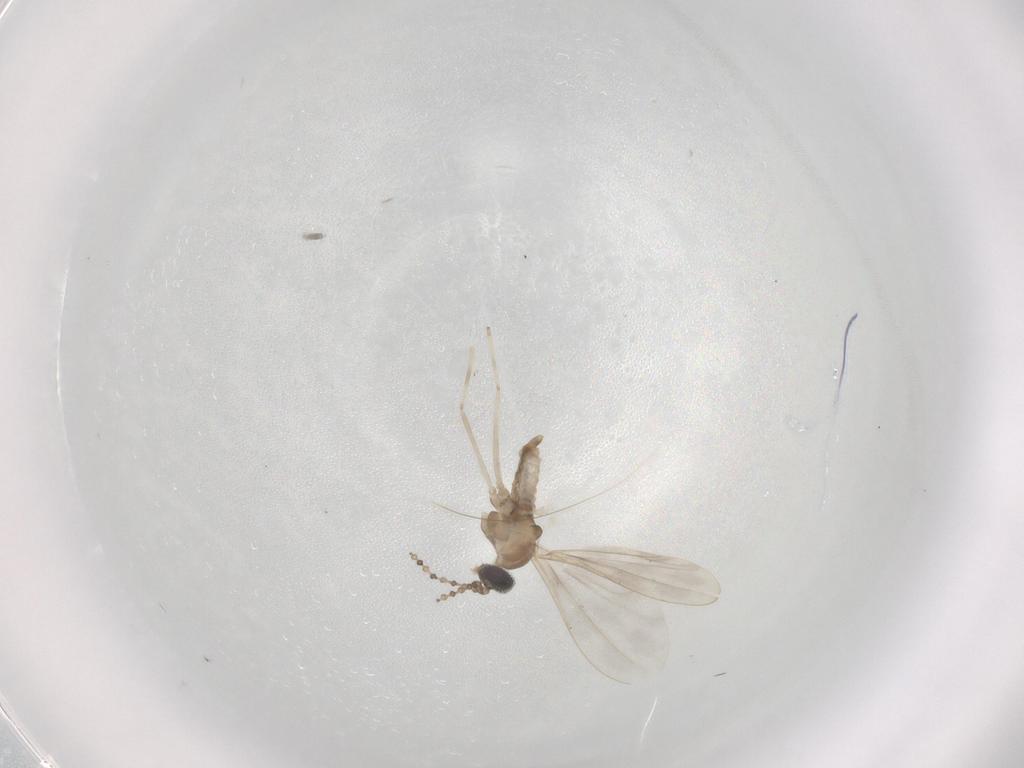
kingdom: Animalia
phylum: Arthropoda
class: Insecta
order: Diptera
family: Cecidomyiidae
